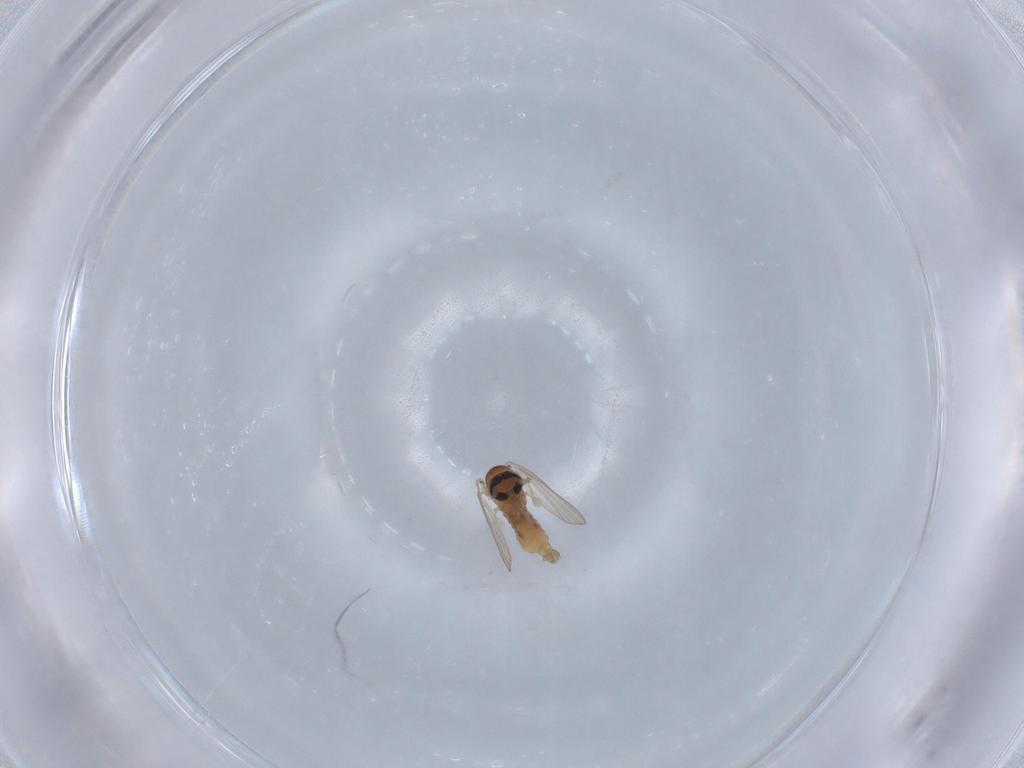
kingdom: Animalia
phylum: Arthropoda
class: Insecta
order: Diptera
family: Psychodidae
